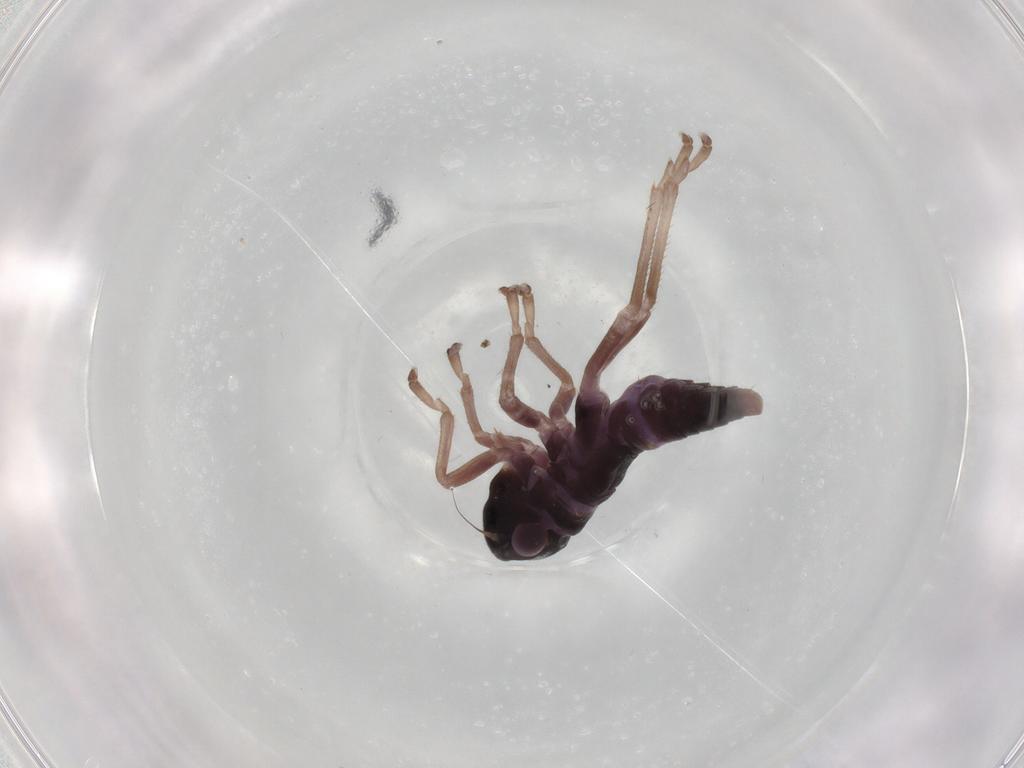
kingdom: Animalia
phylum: Arthropoda
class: Insecta
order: Hemiptera
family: Cicadellidae
